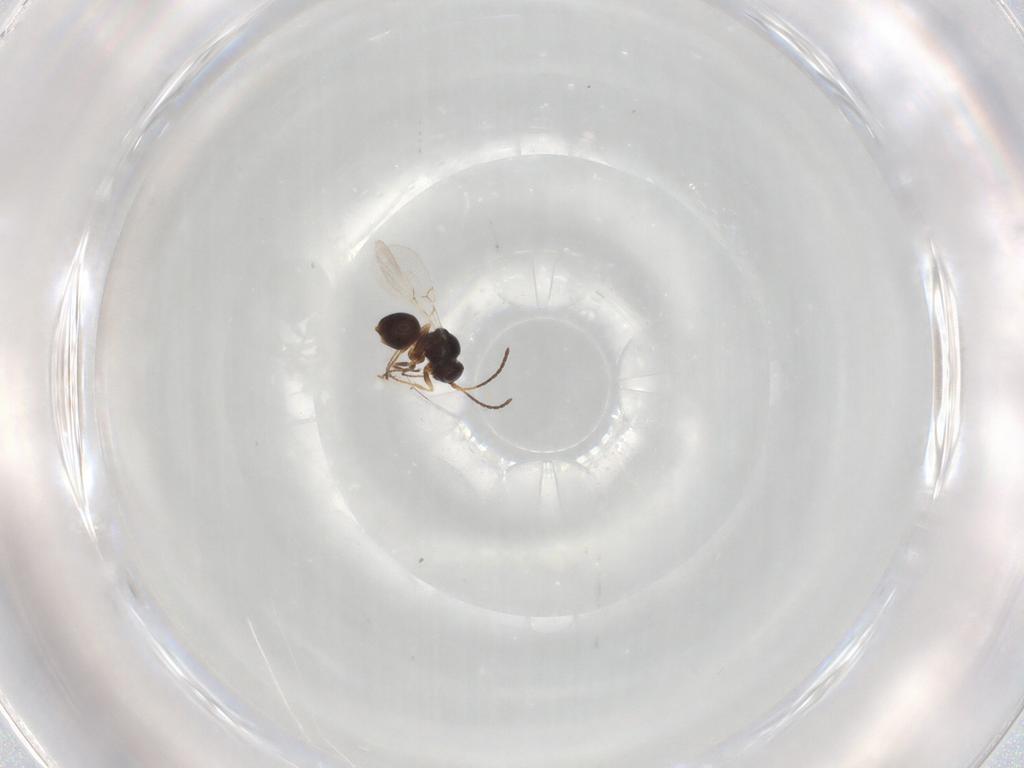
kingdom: Animalia
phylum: Arthropoda
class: Insecta
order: Hymenoptera
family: Figitidae
